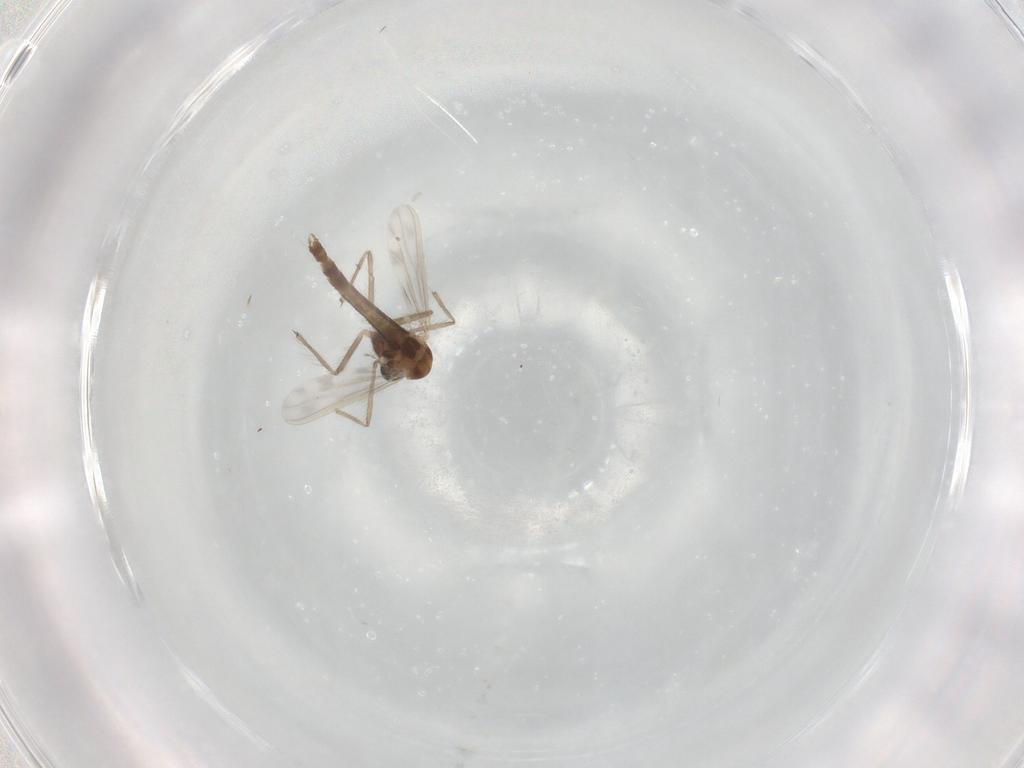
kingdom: Animalia
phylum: Arthropoda
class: Insecta
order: Diptera
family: Chironomidae
